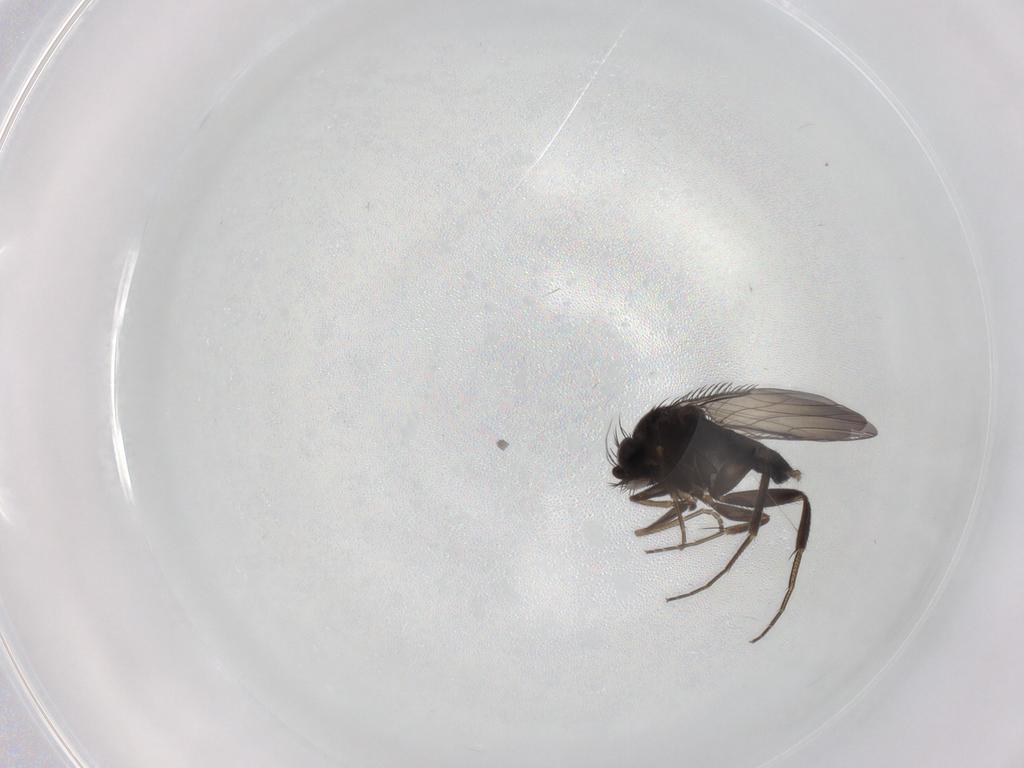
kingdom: Animalia
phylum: Arthropoda
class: Insecta
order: Diptera
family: Phoridae
